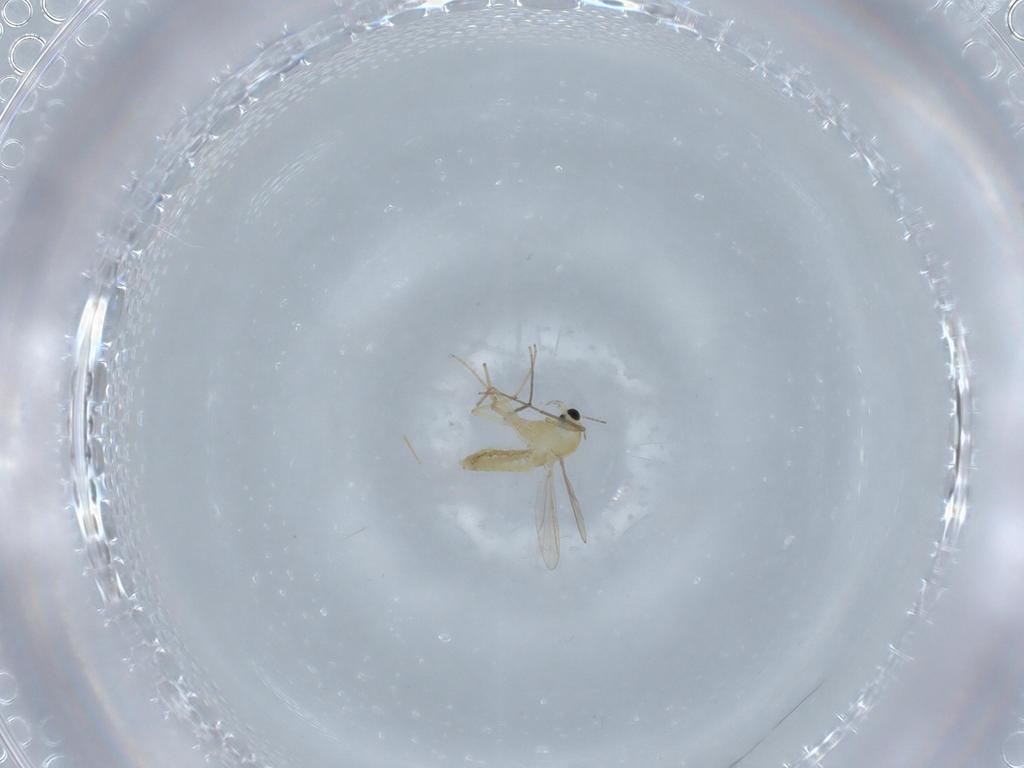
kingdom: Animalia
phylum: Arthropoda
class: Insecta
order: Diptera
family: Chironomidae
